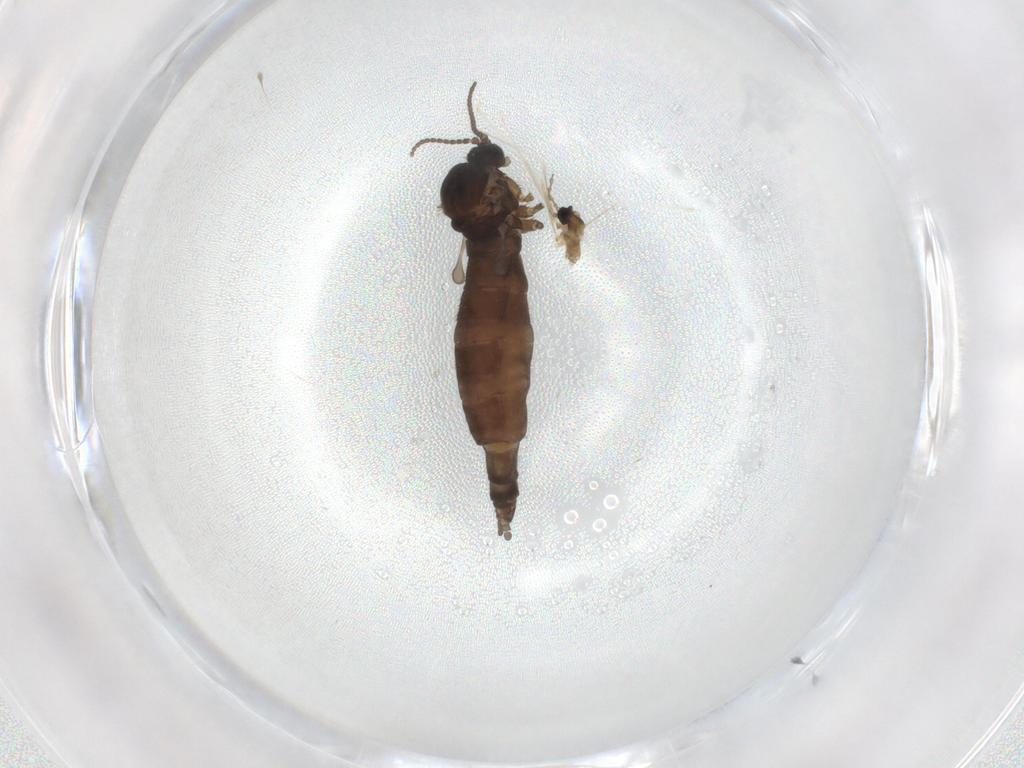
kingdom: Animalia
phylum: Arthropoda
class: Insecta
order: Diptera
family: Sciaridae
